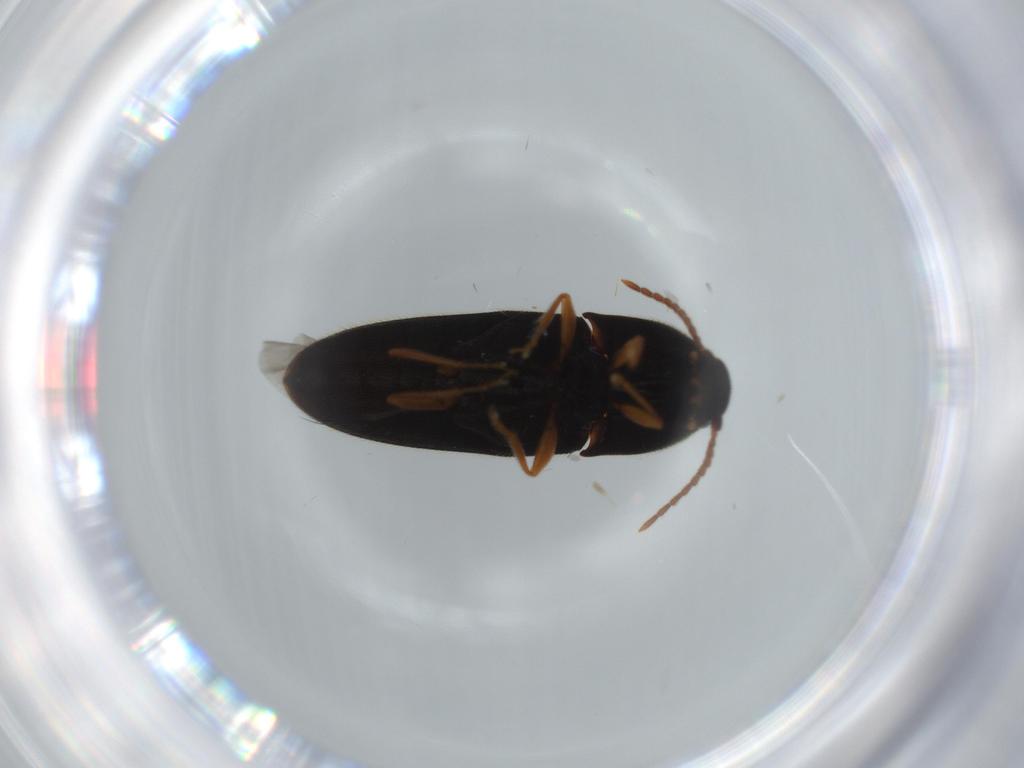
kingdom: Animalia
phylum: Arthropoda
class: Insecta
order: Coleoptera
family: Elateridae
